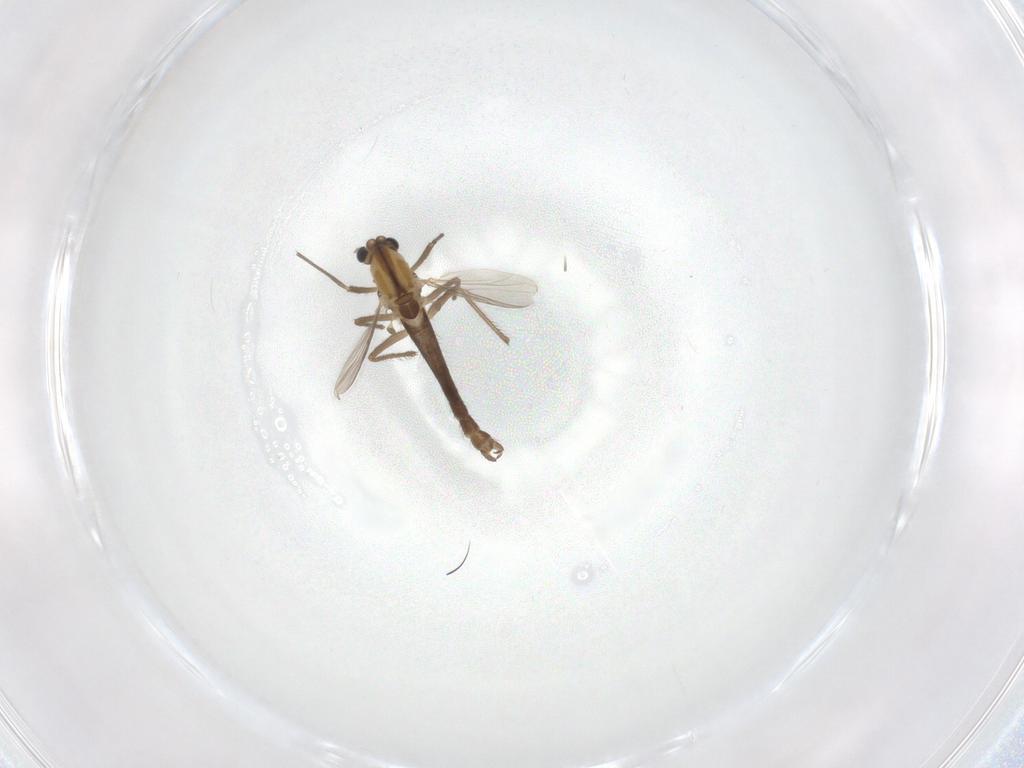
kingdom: Animalia
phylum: Arthropoda
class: Insecta
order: Diptera
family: Chironomidae
